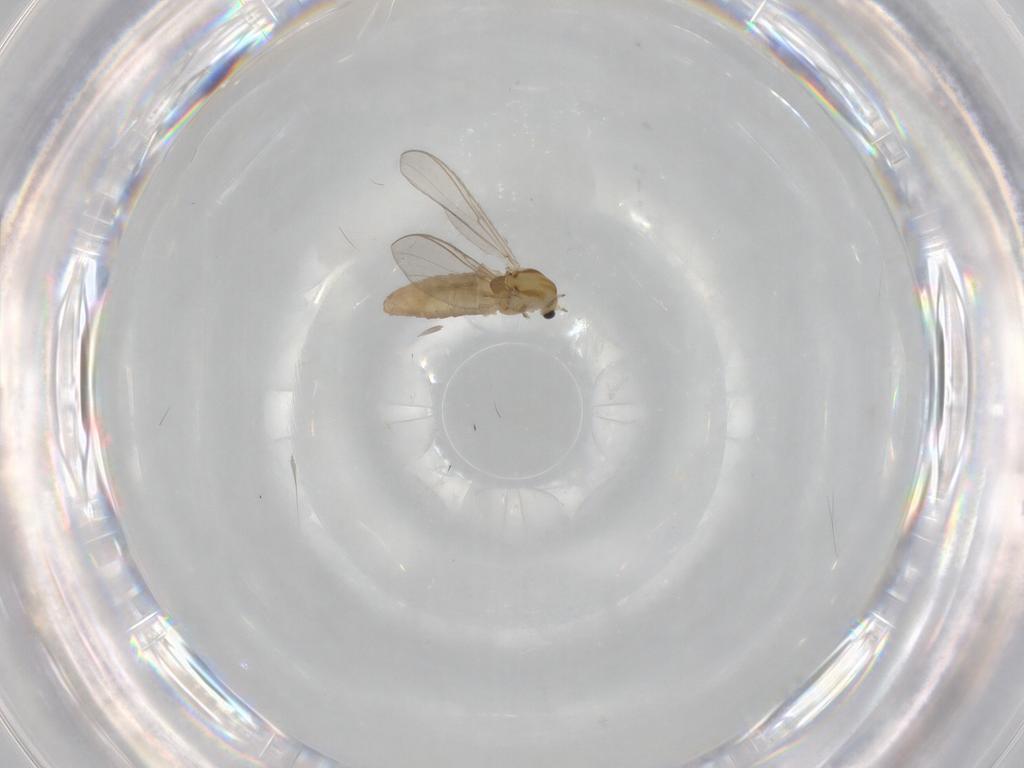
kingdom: Animalia
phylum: Arthropoda
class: Insecta
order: Diptera
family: Chironomidae
